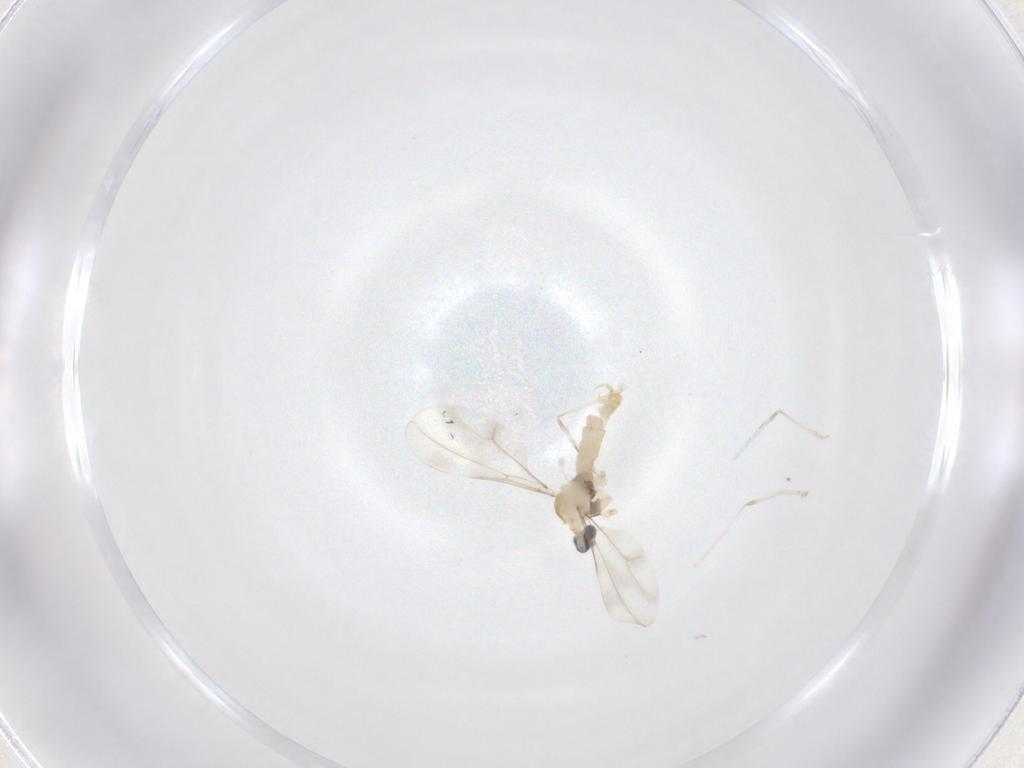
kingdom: Animalia
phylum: Arthropoda
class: Insecta
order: Diptera
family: Cecidomyiidae
